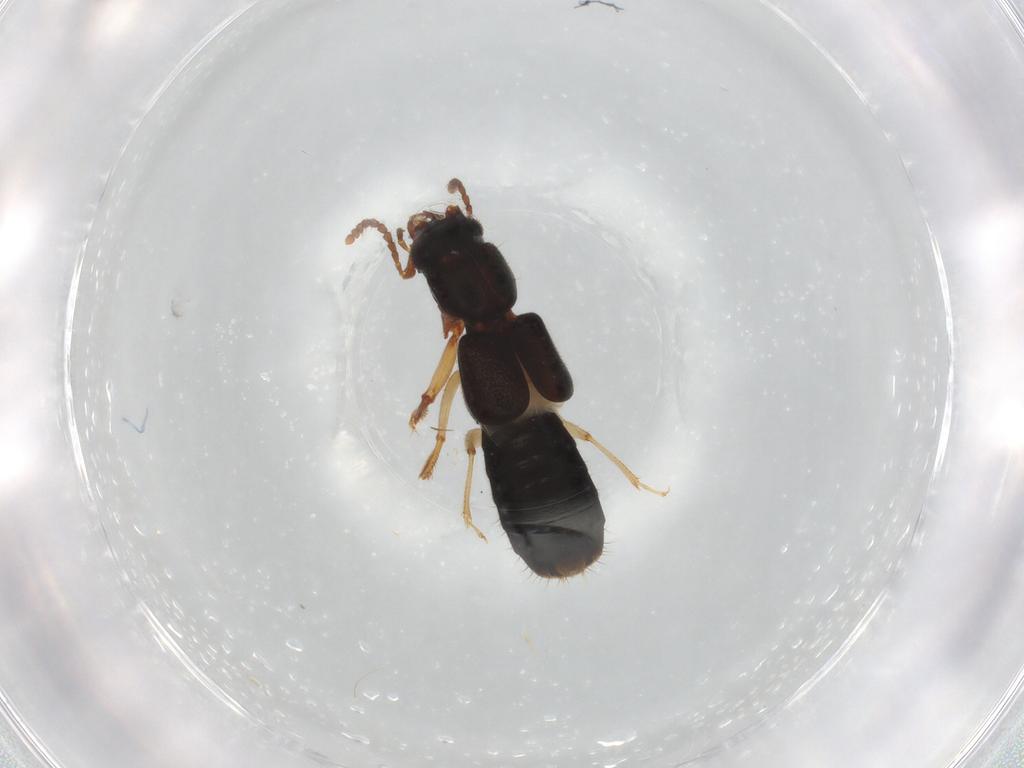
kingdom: Animalia
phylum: Arthropoda
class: Insecta
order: Coleoptera
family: Staphylinidae
